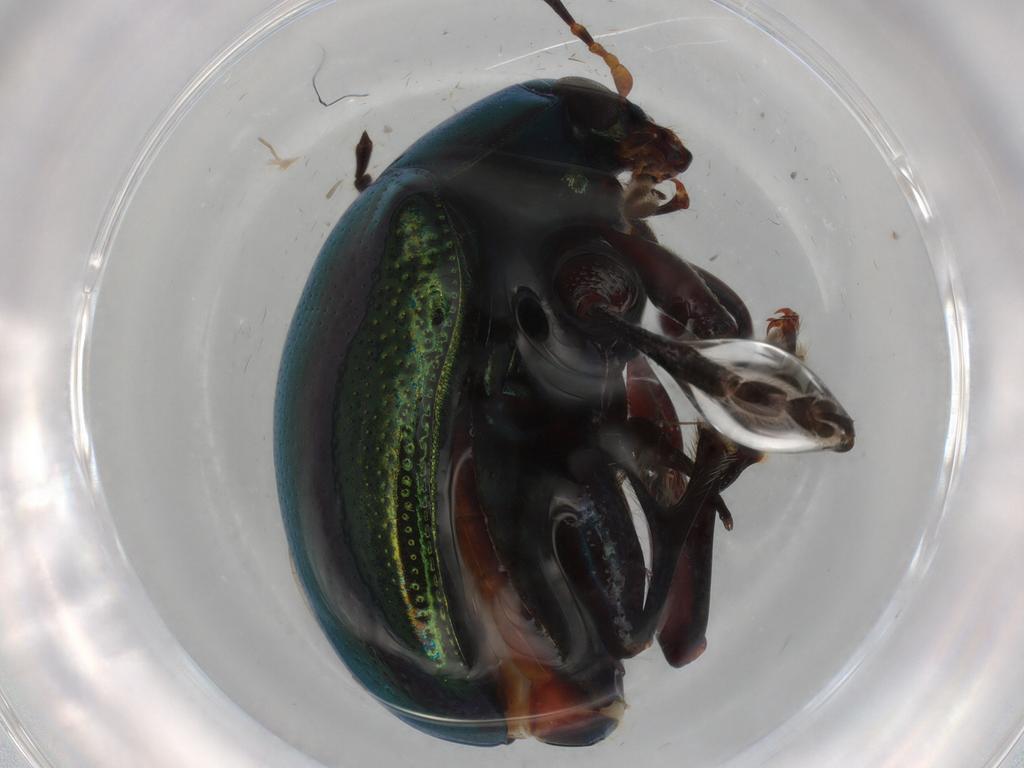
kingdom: Animalia
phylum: Arthropoda
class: Insecta
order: Coleoptera
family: Chrysomelidae
